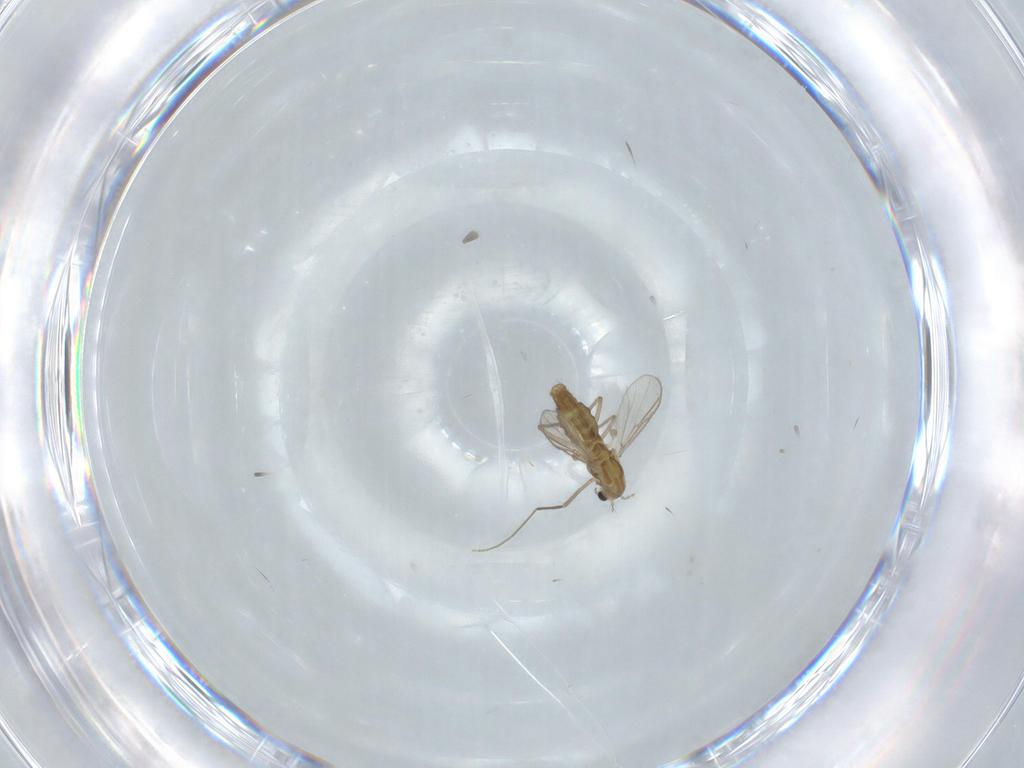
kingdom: Animalia
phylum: Arthropoda
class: Insecta
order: Diptera
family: Chironomidae
